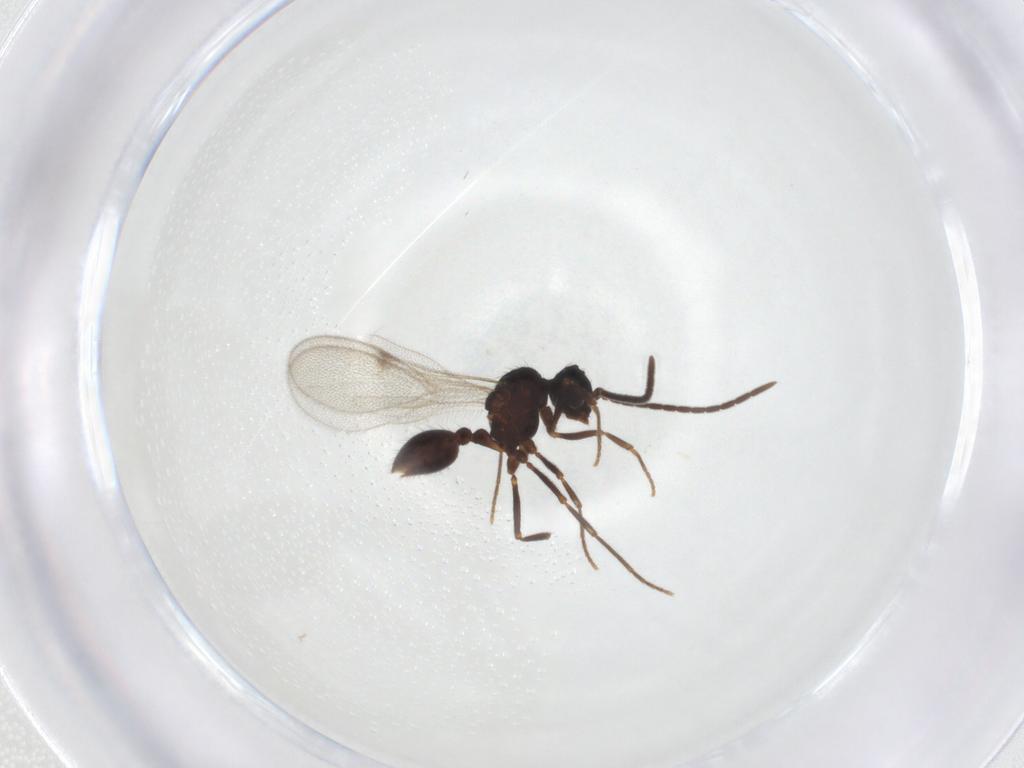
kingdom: Animalia
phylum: Arthropoda
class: Insecta
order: Hymenoptera
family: Formicidae
